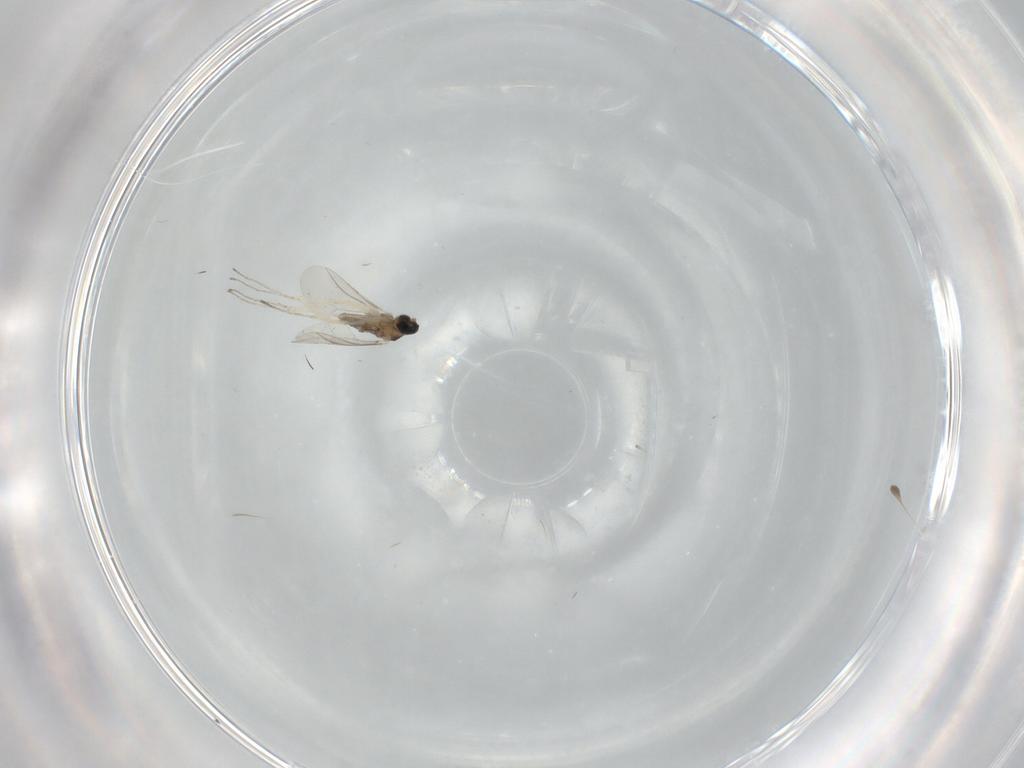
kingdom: Animalia
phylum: Arthropoda
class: Insecta
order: Diptera
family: Cecidomyiidae
